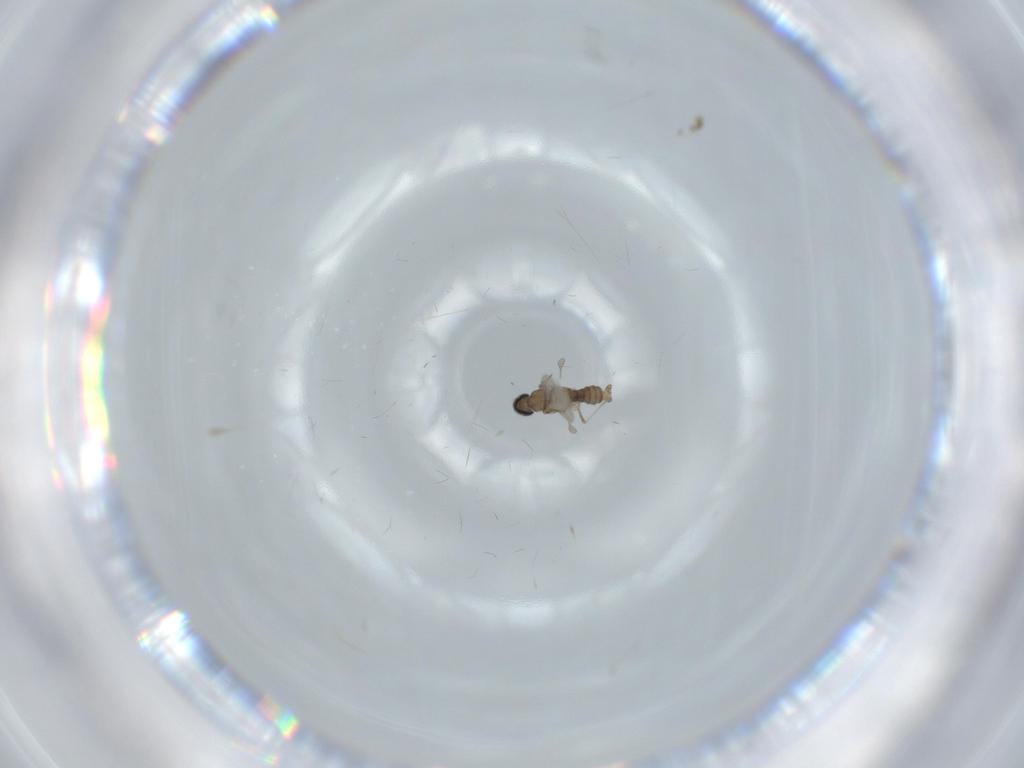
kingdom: Animalia
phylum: Arthropoda
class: Insecta
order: Diptera
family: Cecidomyiidae
